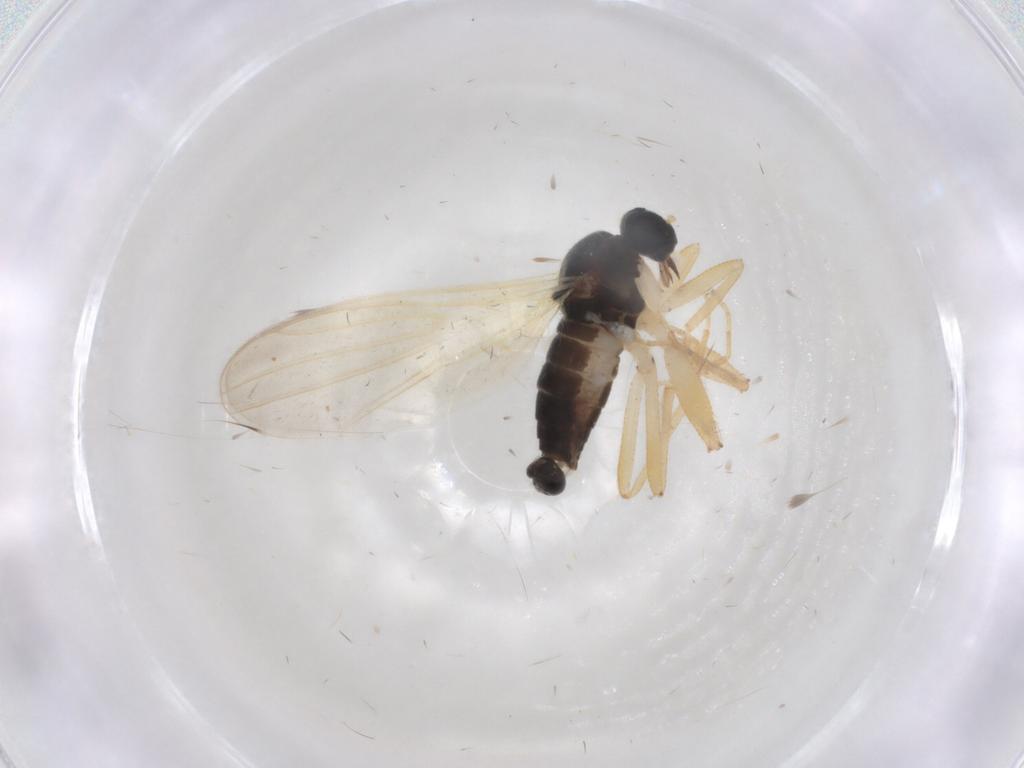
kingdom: Animalia
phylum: Arthropoda
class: Insecta
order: Diptera
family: Hybotidae
